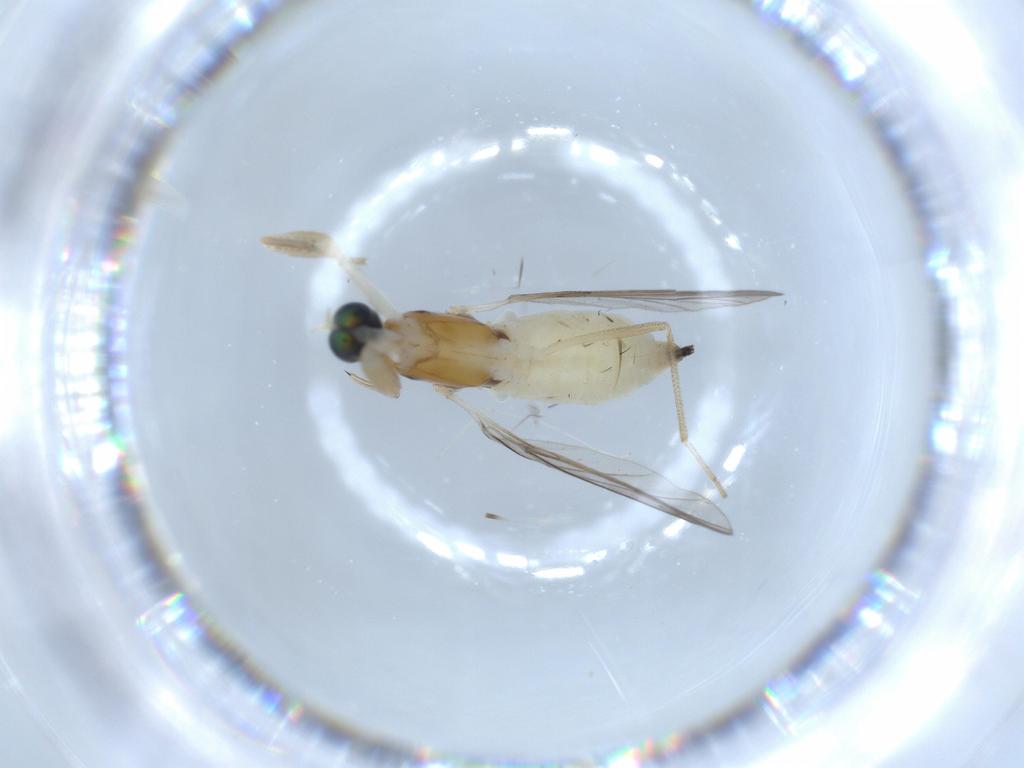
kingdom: Animalia
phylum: Arthropoda
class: Insecta
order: Diptera
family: Empididae
